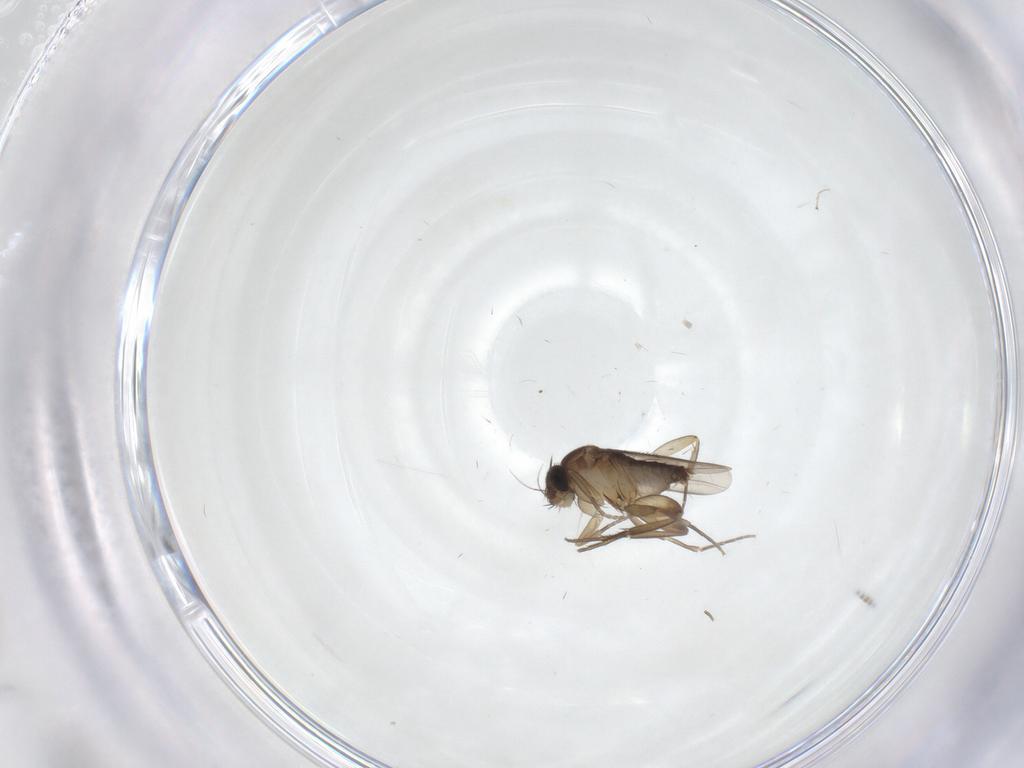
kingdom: Animalia
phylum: Arthropoda
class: Insecta
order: Diptera
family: Phoridae
